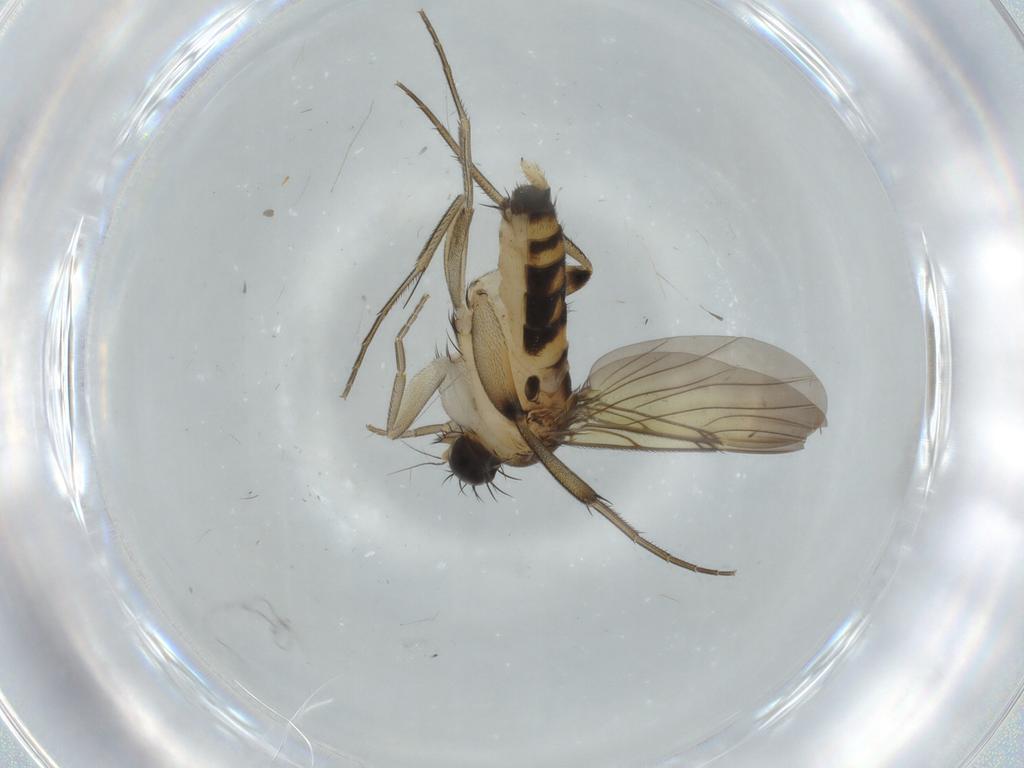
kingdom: Animalia
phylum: Arthropoda
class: Insecta
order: Diptera
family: Phoridae
